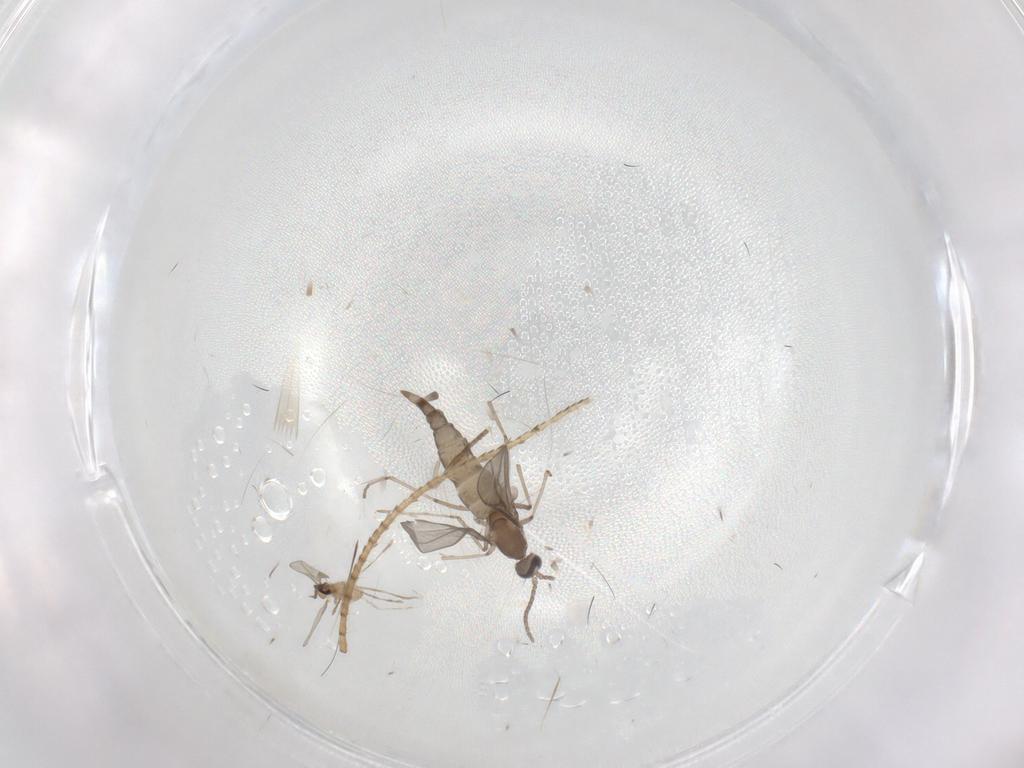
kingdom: Animalia
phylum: Arthropoda
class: Insecta
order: Diptera
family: Cecidomyiidae
